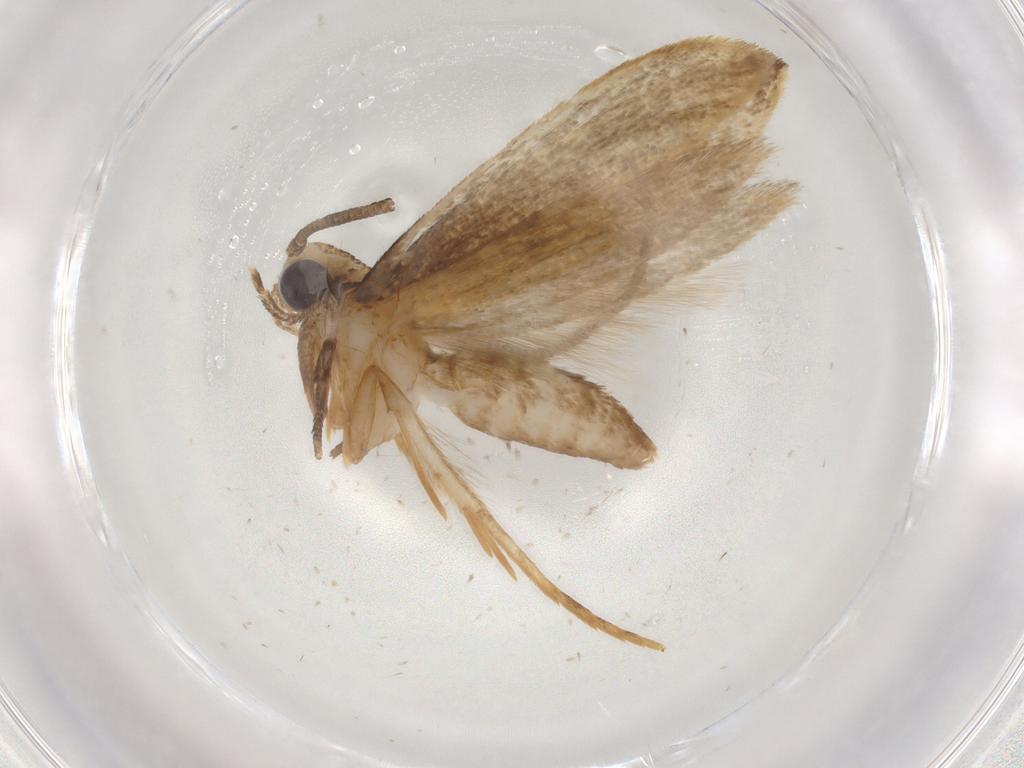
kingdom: Animalia
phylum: Arthropoda
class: Insecta
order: Lepidoptera
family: Tineidae
